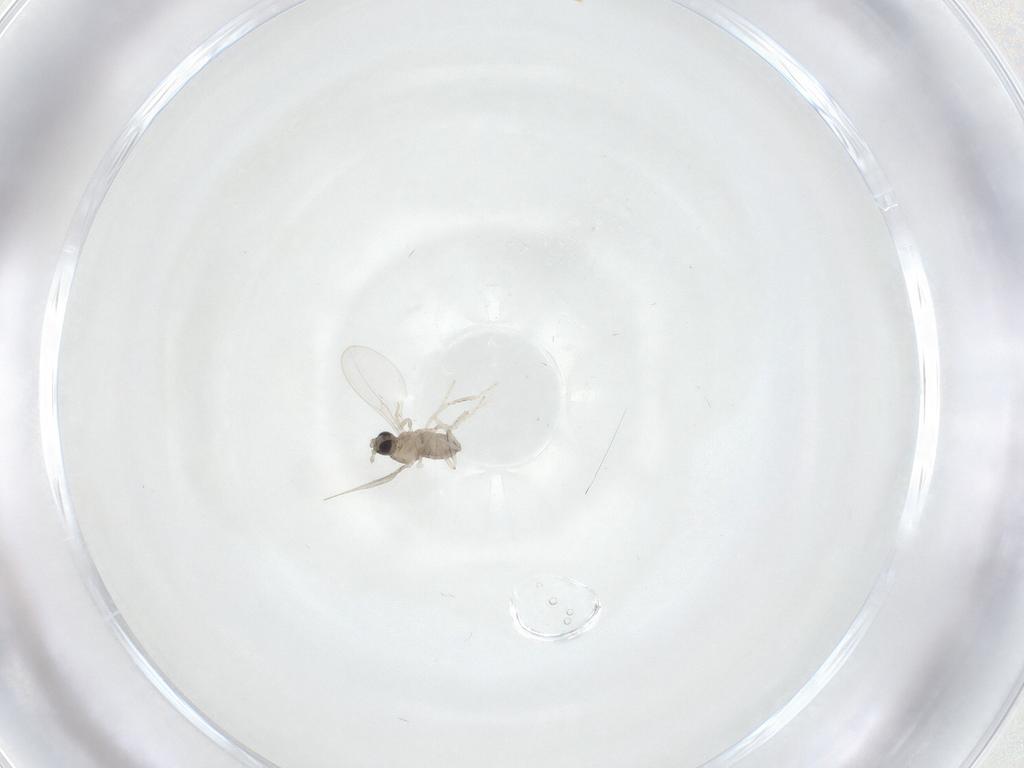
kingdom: Animalia
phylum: Arthropoda
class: Insecta
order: Diptera
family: Cecidomyiidae
